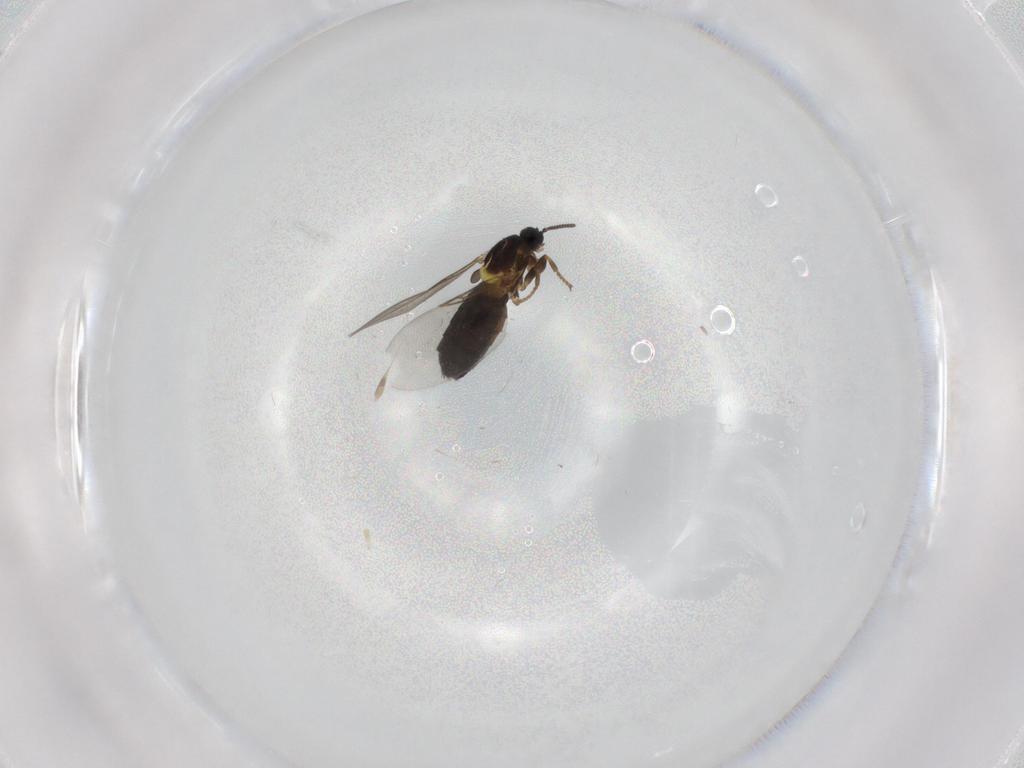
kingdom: Animalia
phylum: Arthropoda
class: Insecta
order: Diptera
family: Scatopsidae
